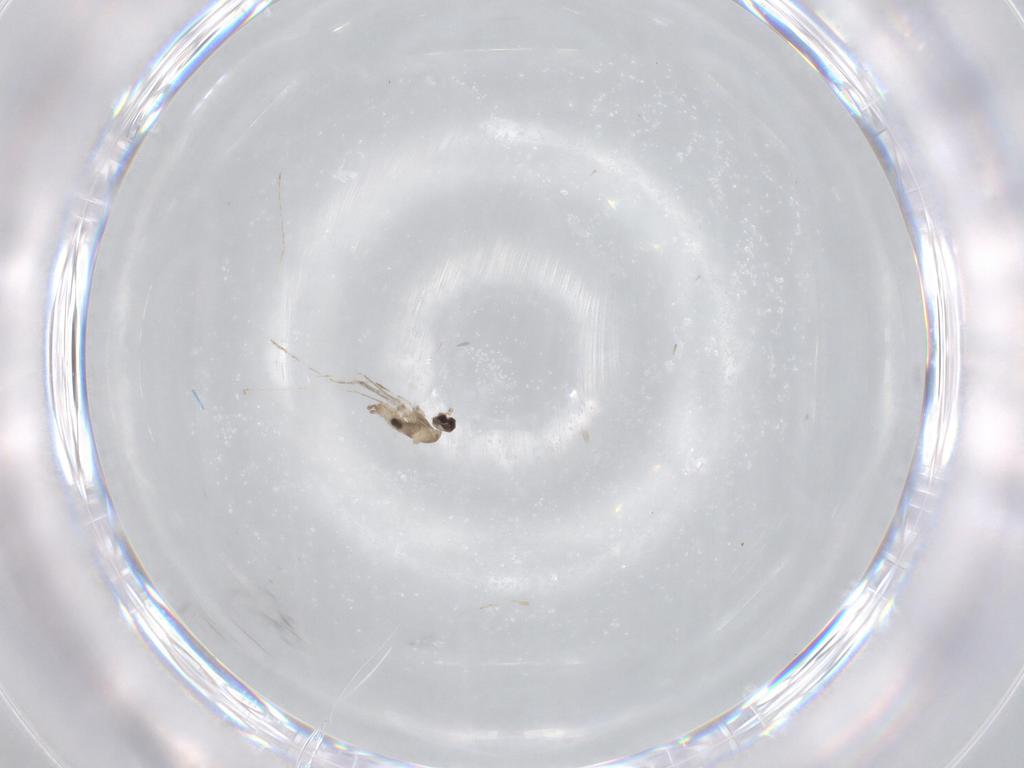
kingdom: Animalia
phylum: Arthropoda
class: Insecta
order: Diptera
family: Cecidomyiidae
